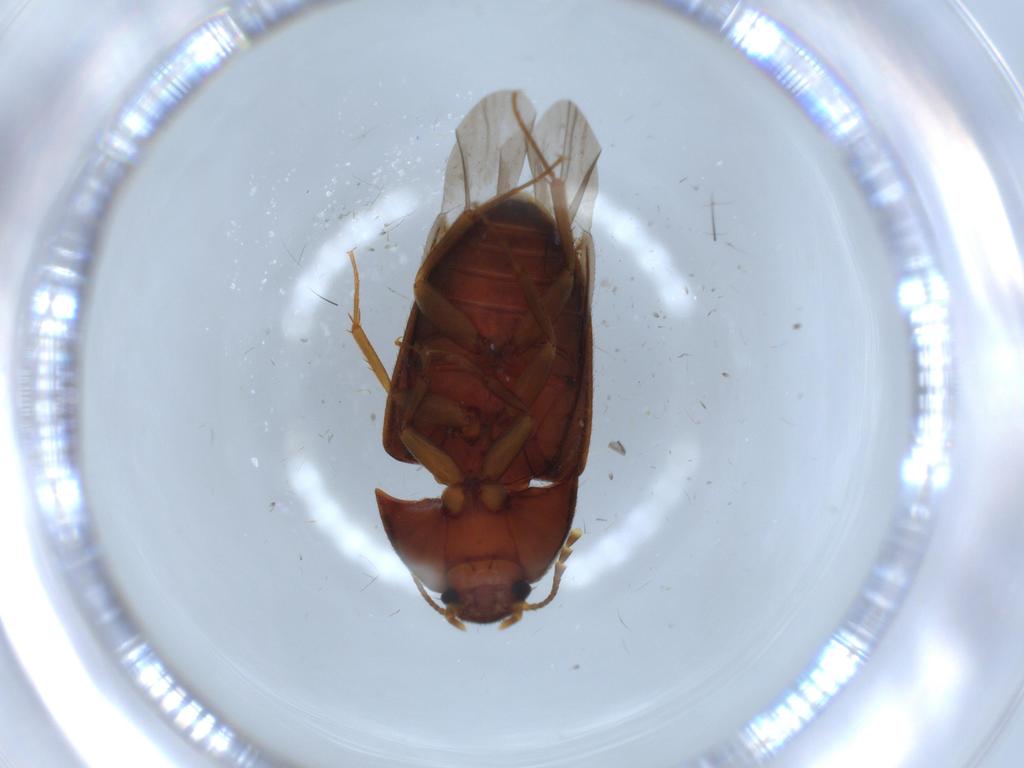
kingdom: Animalia
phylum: Arthropoda
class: Insecta
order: Coleoptera
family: Mycetophagidae
